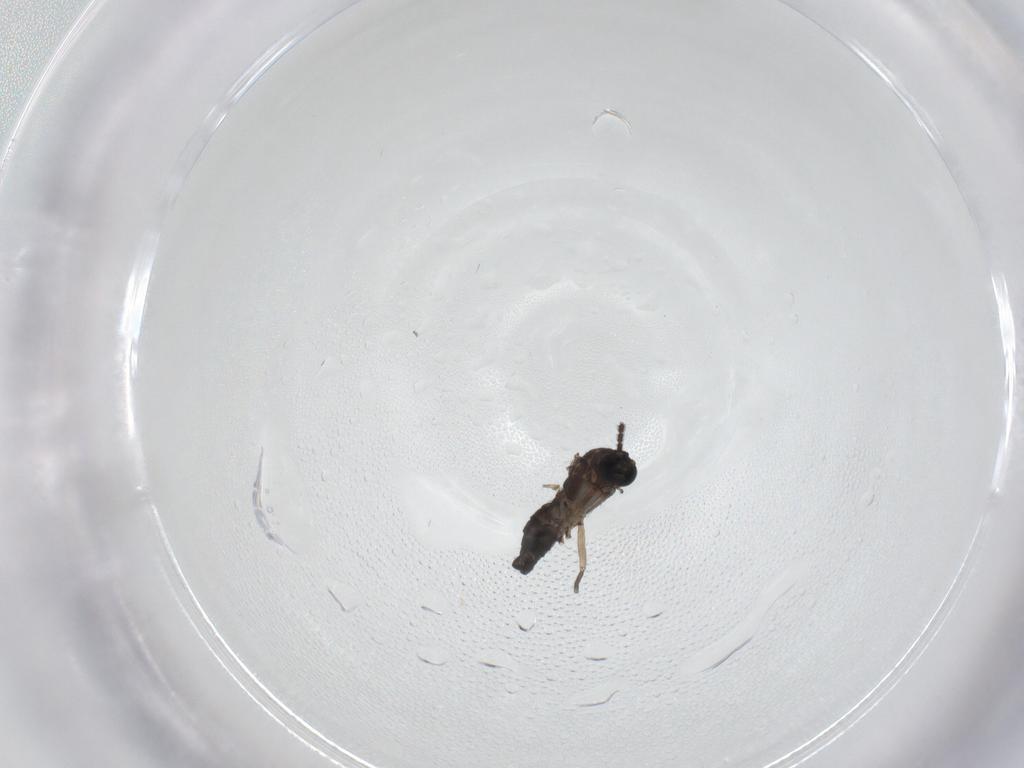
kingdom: Animalia
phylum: Arthropoda
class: Insecta
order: Diptera
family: Sciaridae
